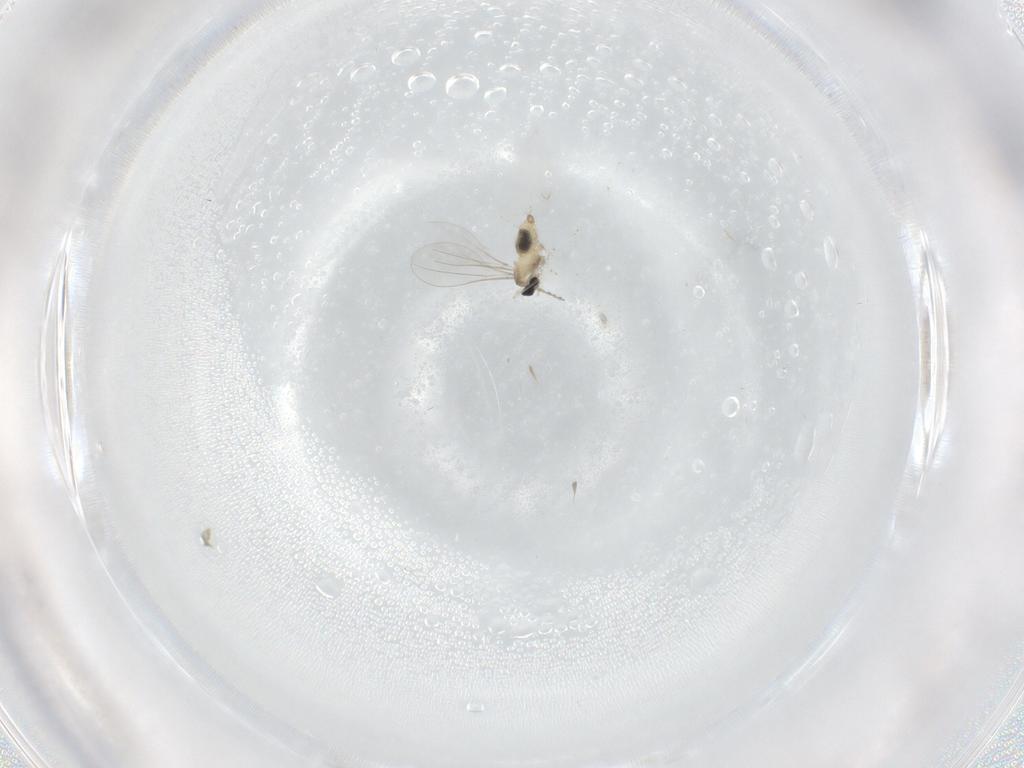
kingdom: Animalia
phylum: Arthropoda
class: Insecta
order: Diptera
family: Cecidomyiidae
